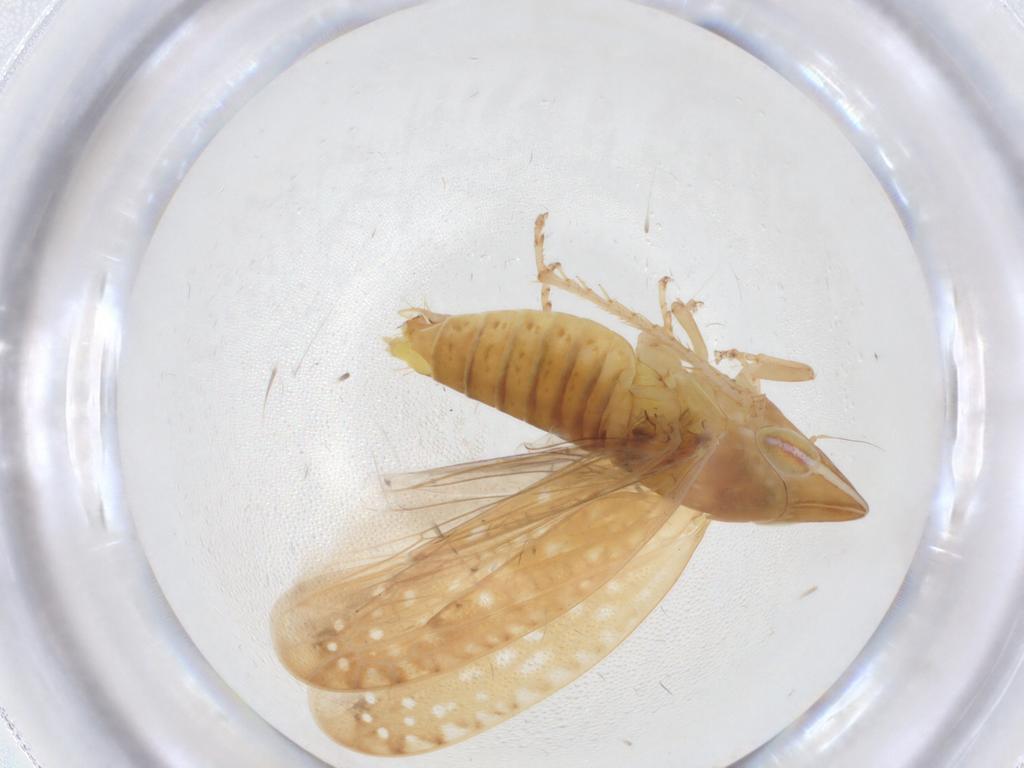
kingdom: Animalia
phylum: Arthropoda
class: Insecta
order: Hemiptera
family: Cicadellidae
